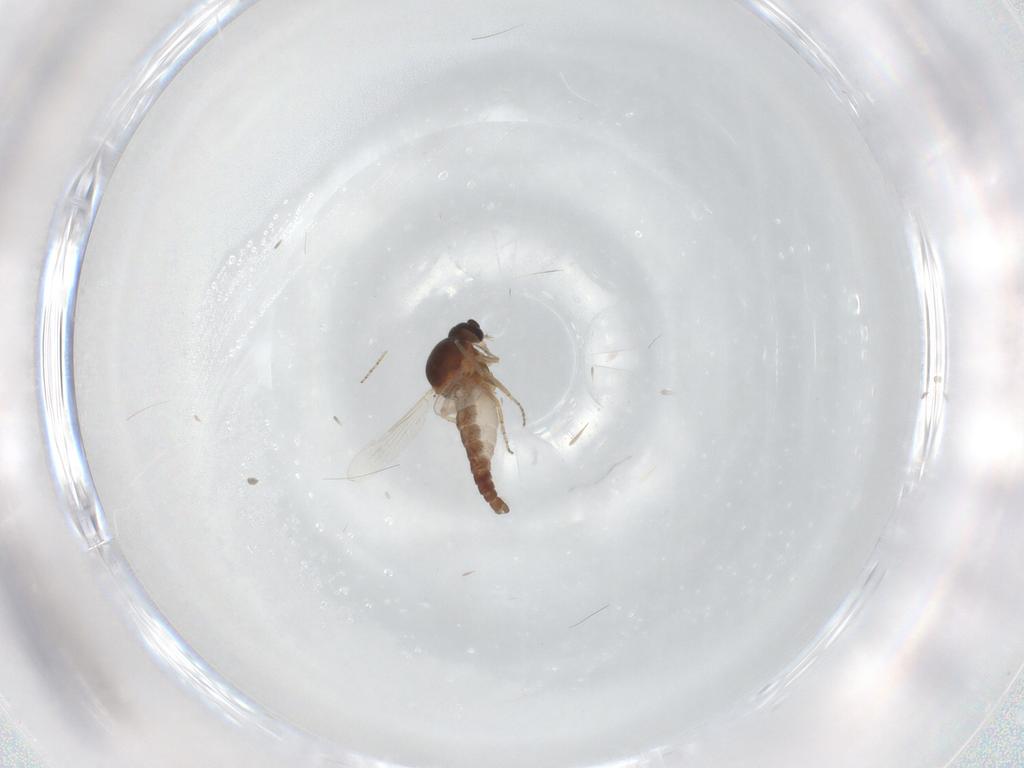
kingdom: Animalia
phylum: Arthropoda
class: Insecta
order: Diptera
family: Ceratopogonidae
